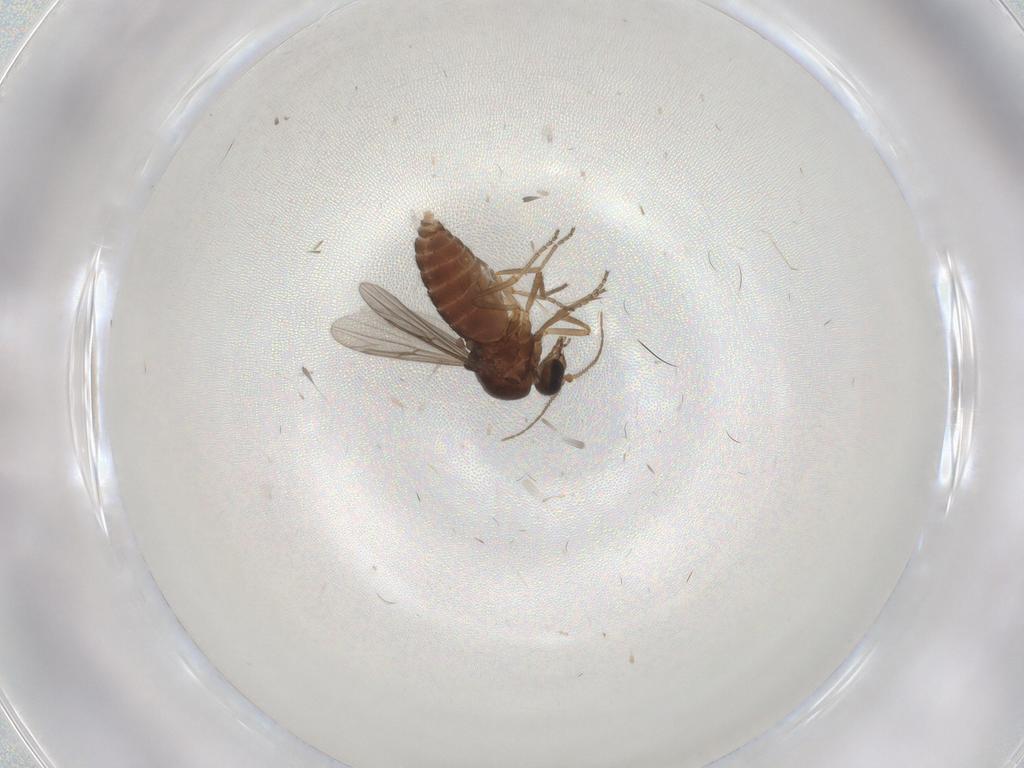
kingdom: Animalia
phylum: Arthropoda
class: Insecta
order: Diptera
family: Ceratopogonidae
